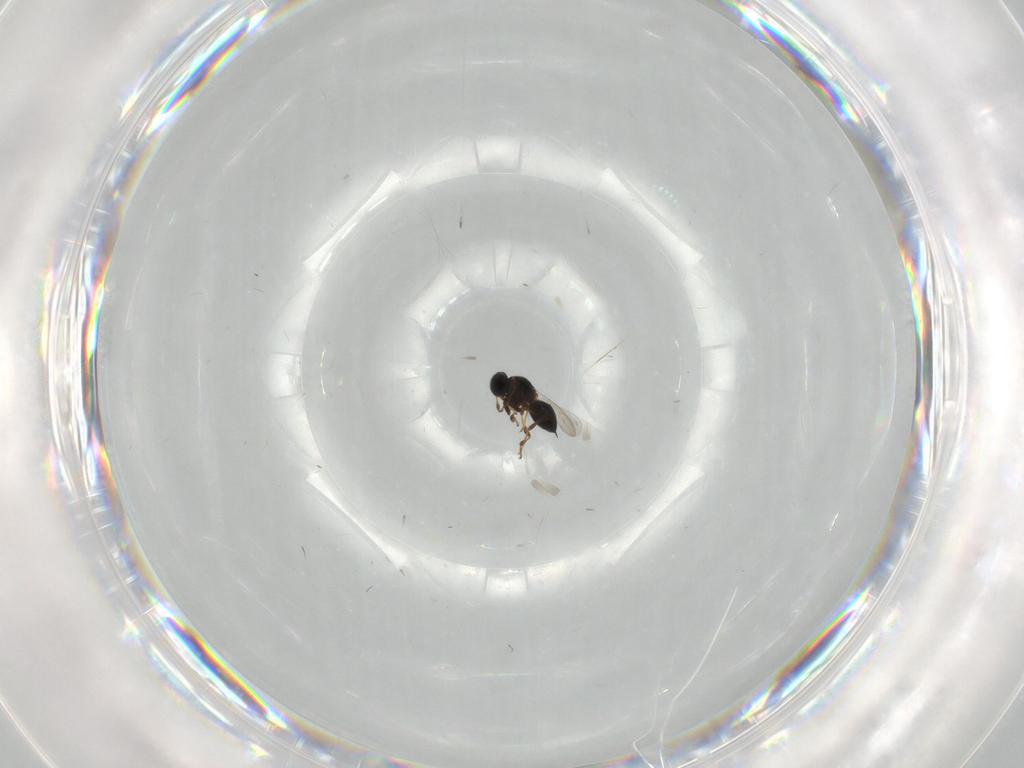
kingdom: Animalia
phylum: Arthropoda
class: Insecta
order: Hymenoptera
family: Platygastridae
